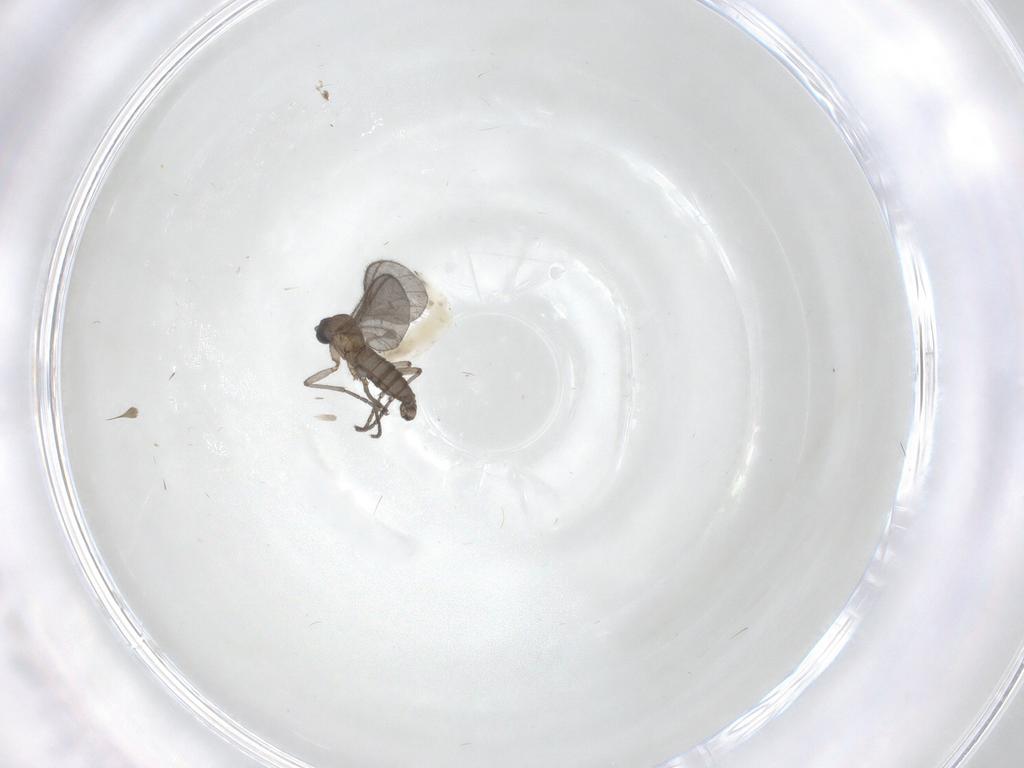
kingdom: Animalia
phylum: Arthropoda
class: Insecta
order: Diptera
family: Sciaridae
